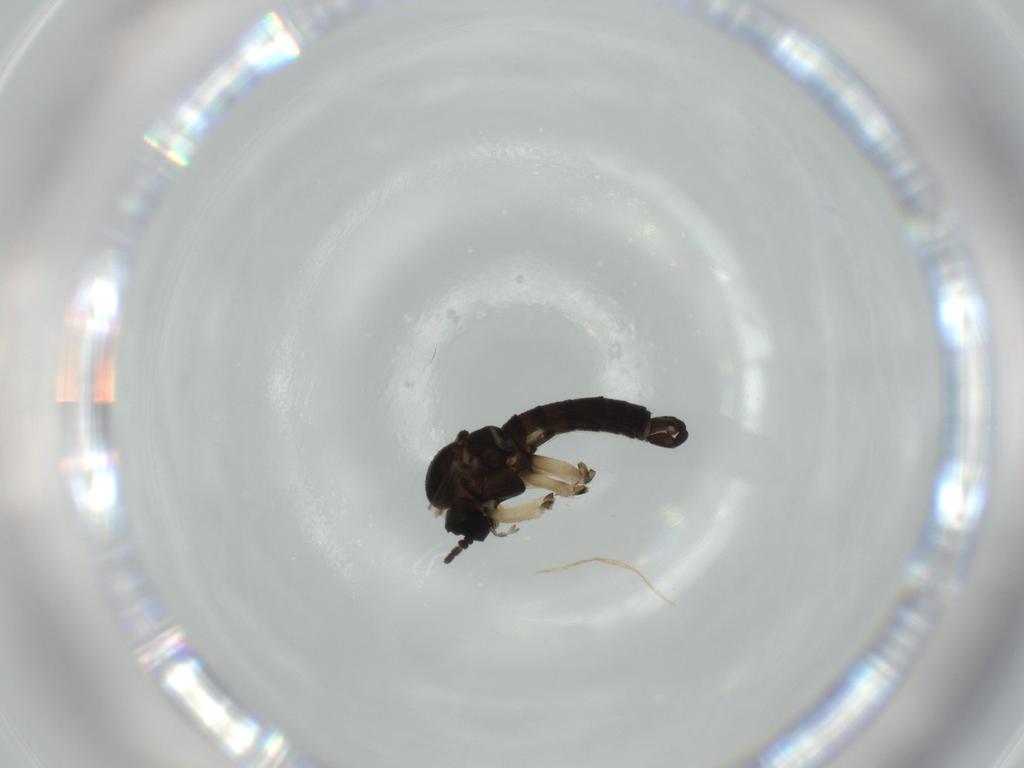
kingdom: Animalia
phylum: Arthropoda
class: Insecta
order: Diptera
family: Sciaridae
